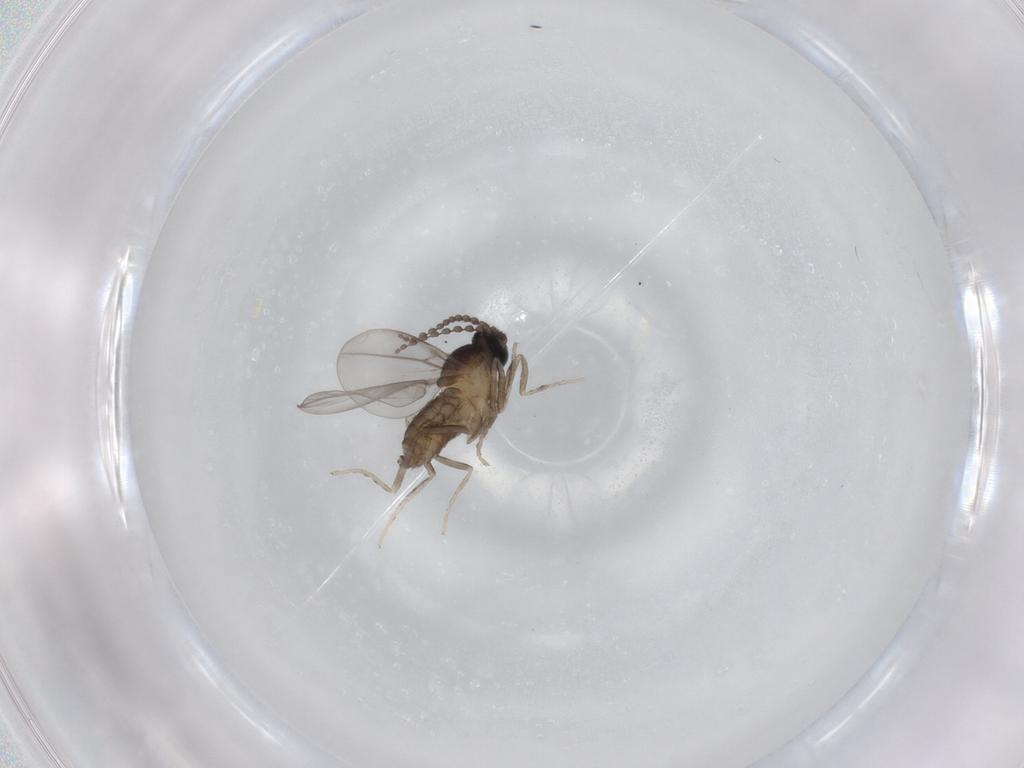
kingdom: Animalia
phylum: Arthropoda
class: Insecta
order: Diptera
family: Cecidomyiidae
